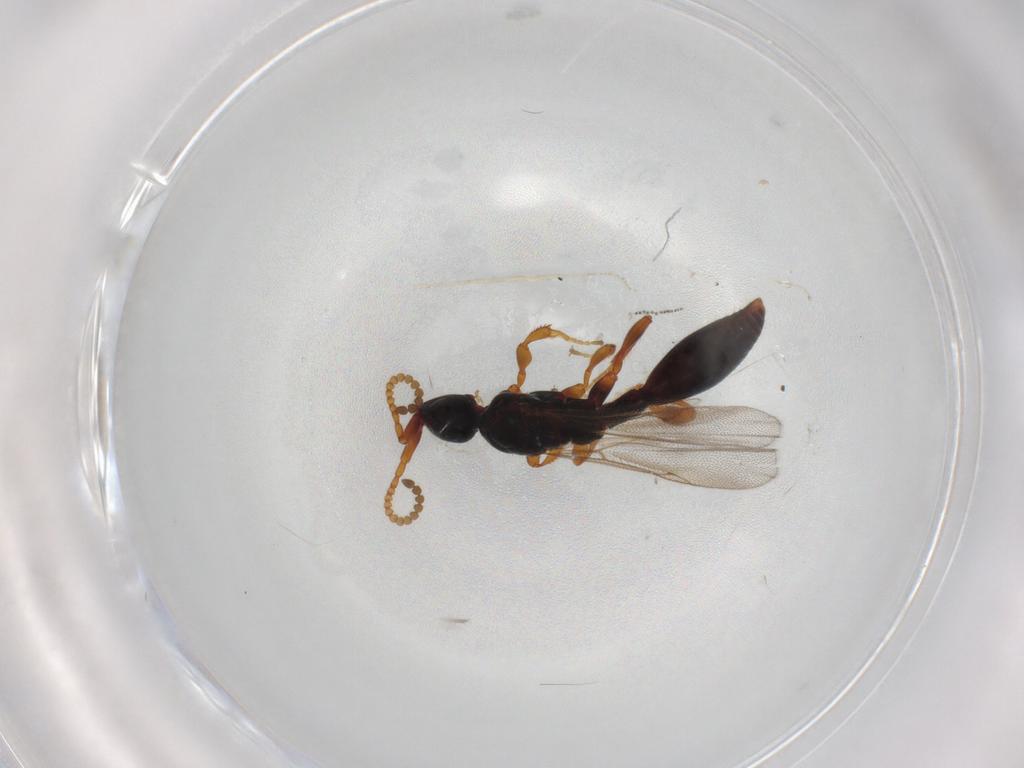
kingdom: Animalia
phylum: Arthropoda
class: Insecta
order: Hymenoptera
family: Diapriidae
